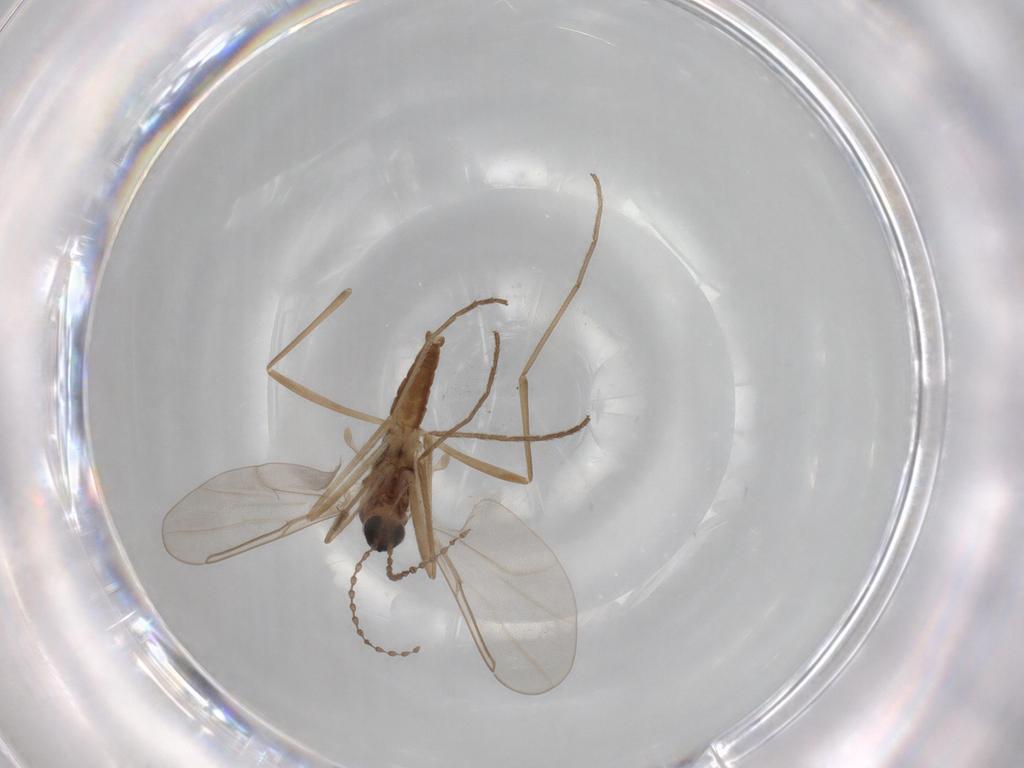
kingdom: Animalia
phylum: Arthropoda
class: Insecta
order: Diptera
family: Cecidomyiidae
